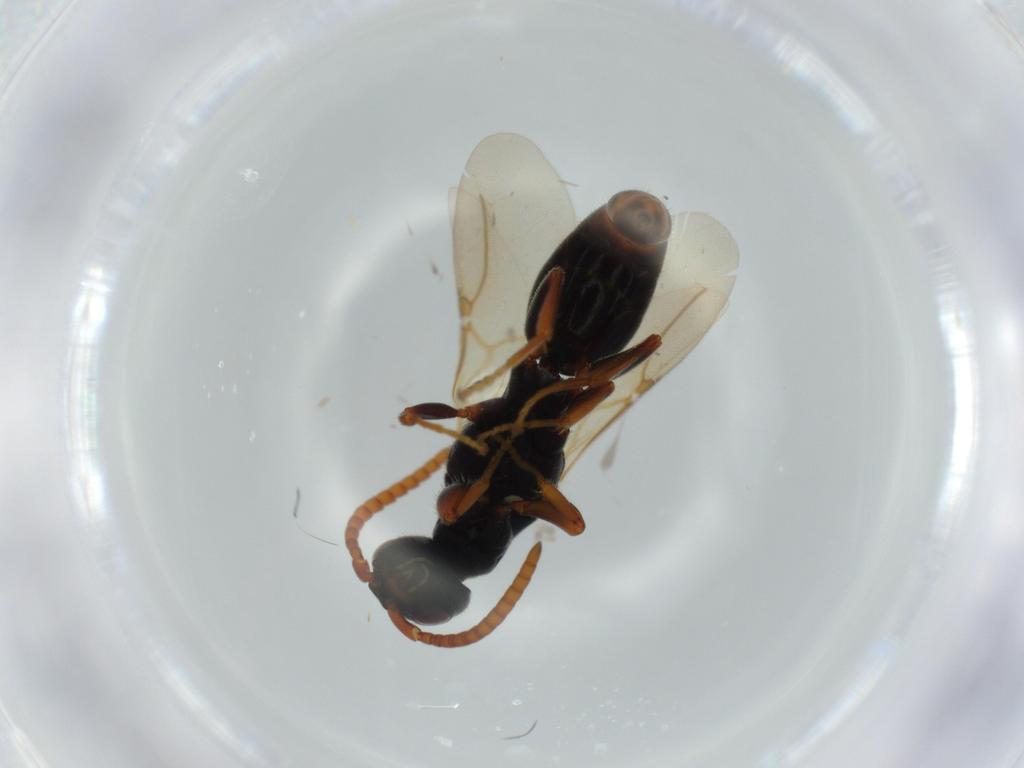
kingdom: Animalia
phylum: Arthropoda
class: Insecta
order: Hymenoptera
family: Bethylidae
